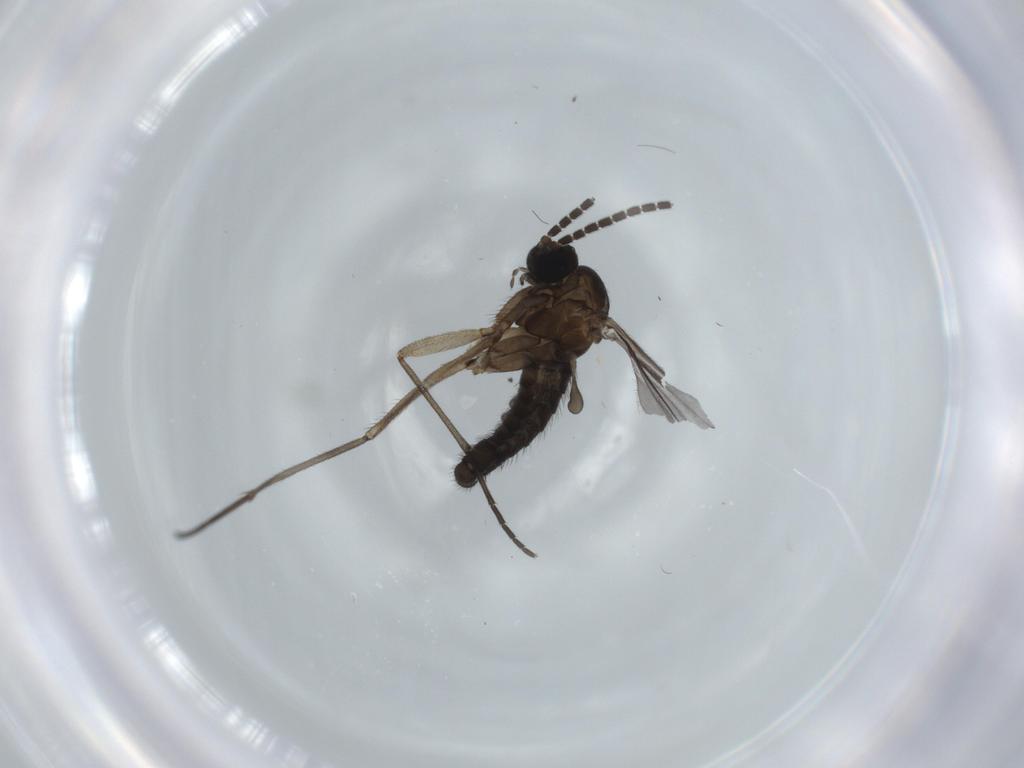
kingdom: Animalia
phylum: Arthropoda
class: Insecta
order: Diptera
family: Sciaridae
